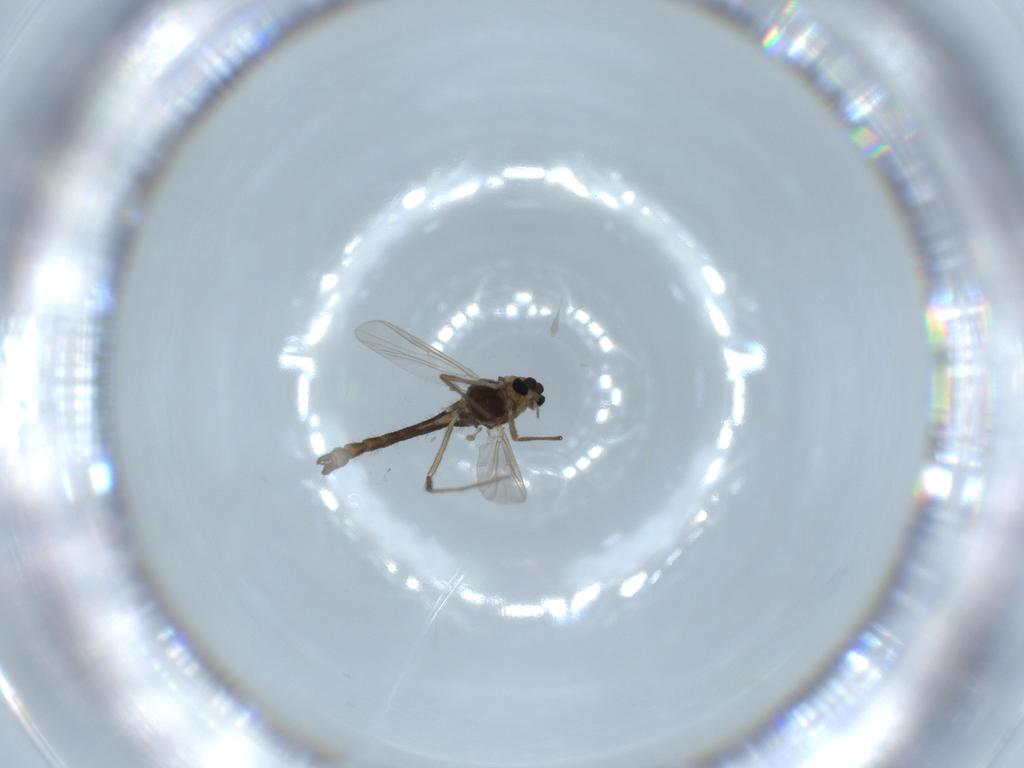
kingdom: Animalia
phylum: Arthropoda
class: Insecta
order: Diptera
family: Chironomidae
